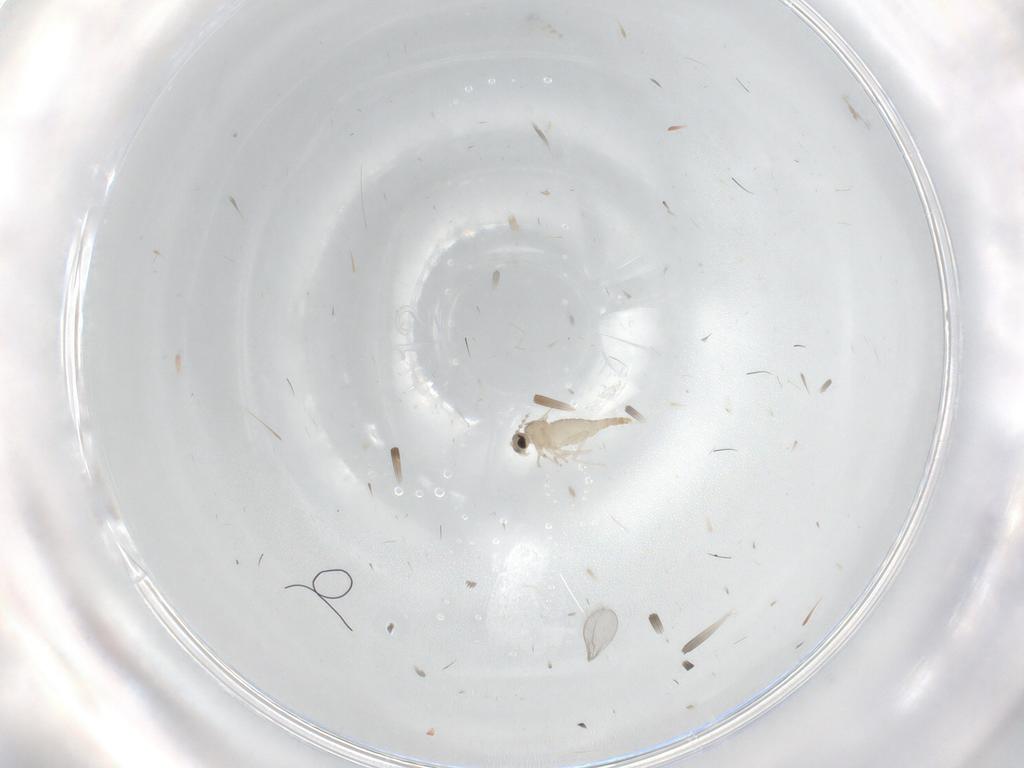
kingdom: Animalia
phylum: Arthropoda
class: Insecta
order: Diptera
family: Cecidomyiidae
